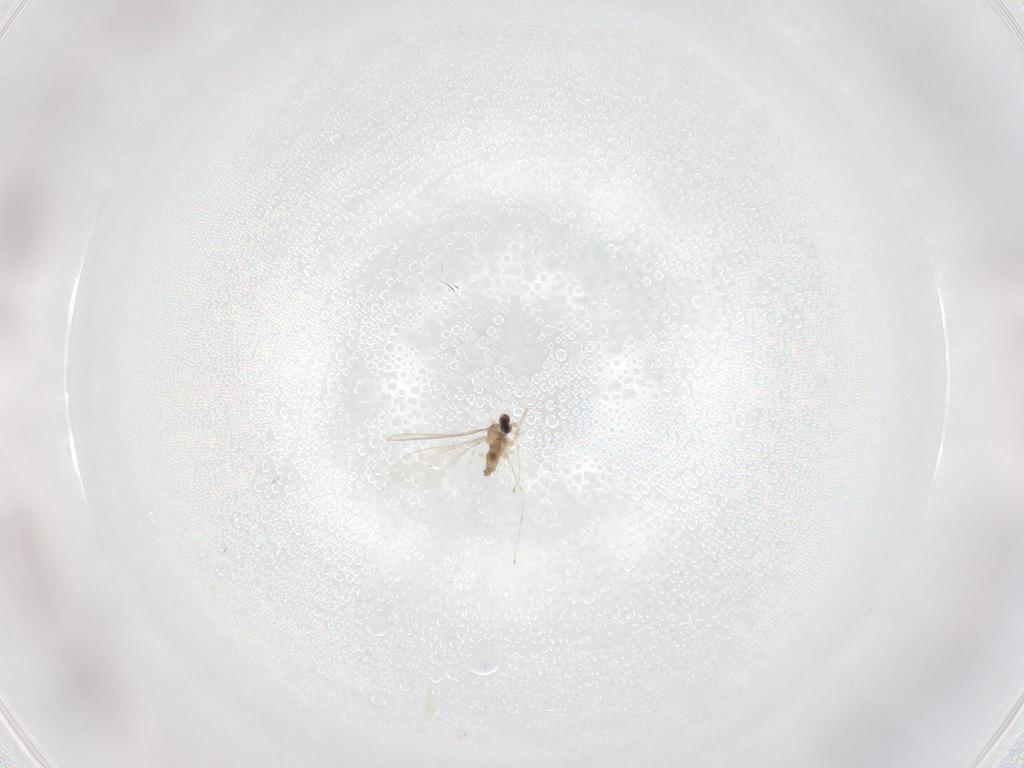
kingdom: Animalia
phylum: Arthropoda
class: Insecta
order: Diptera
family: Cecidomyiidae
